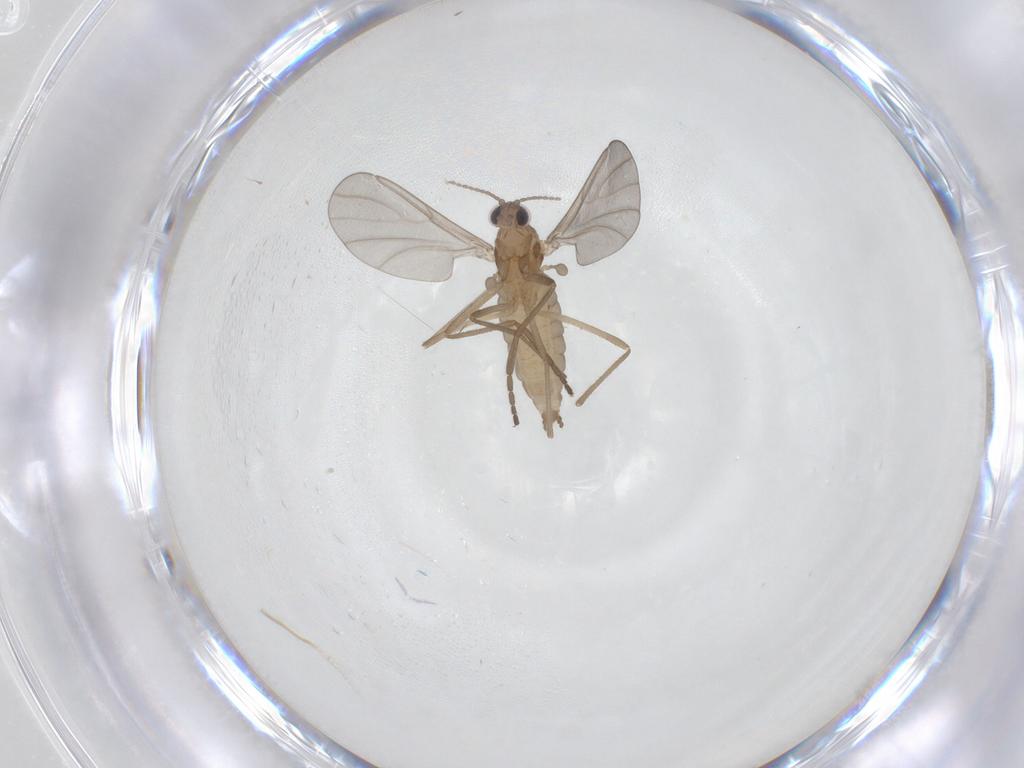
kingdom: Animalia
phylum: Arthropoda
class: Insecta
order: Diptera
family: Cecidomyiidae
